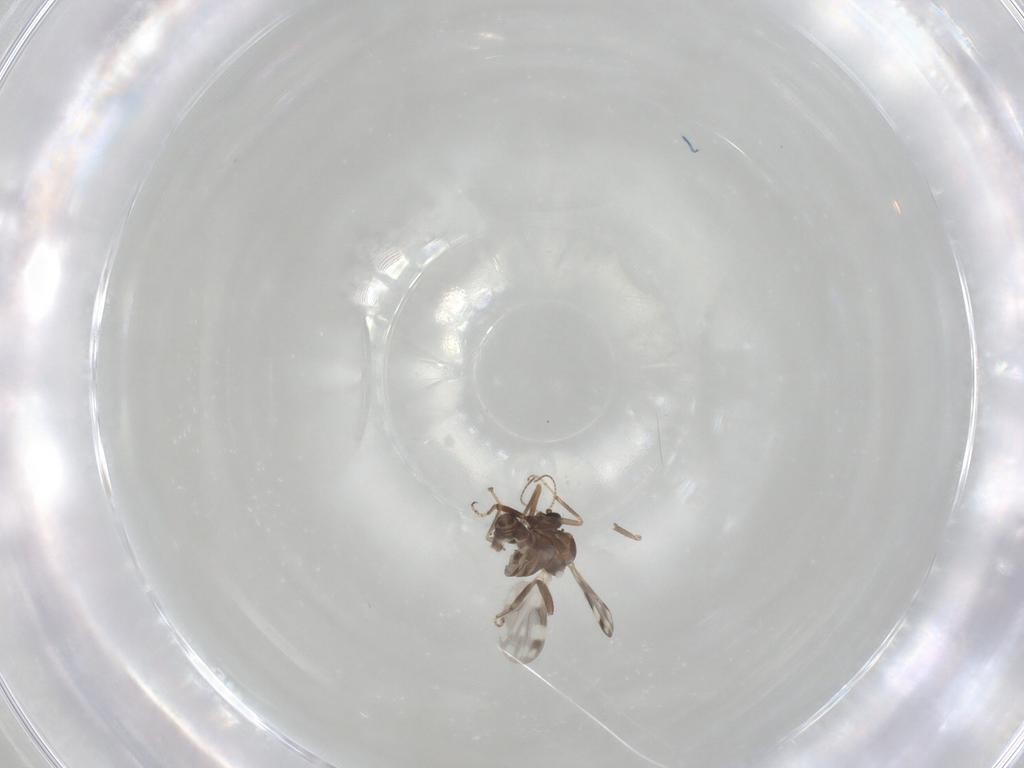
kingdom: Animalia
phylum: Arthropoda
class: Insecta
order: Diptera
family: Ceratopogonidae
